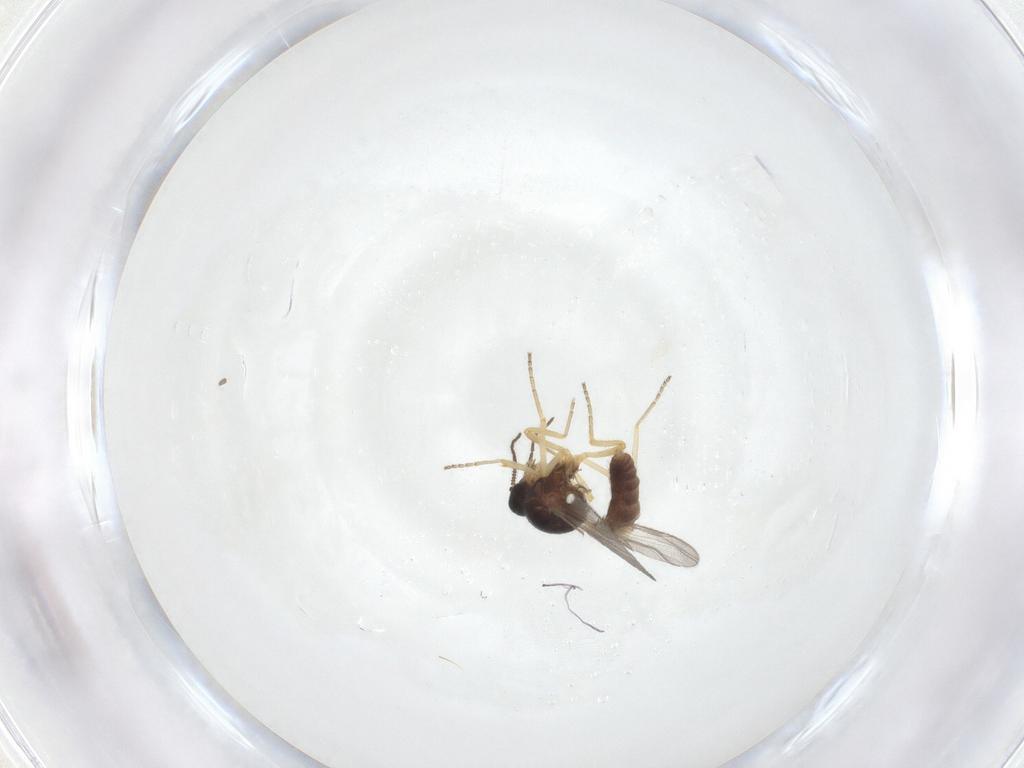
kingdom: Animalia
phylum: Arthropoda
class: Insecta
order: Diptera
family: Ceratopogonidae
